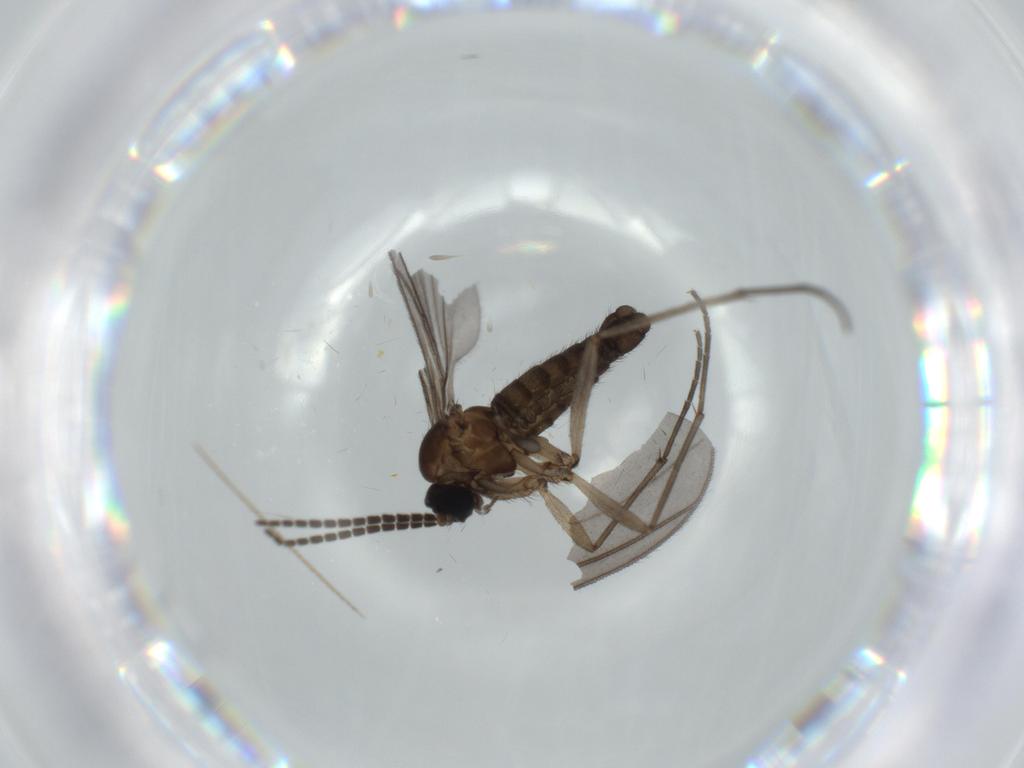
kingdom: Animalia
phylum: Arthropoda
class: Insecta
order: Diptera
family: Sciaridae
